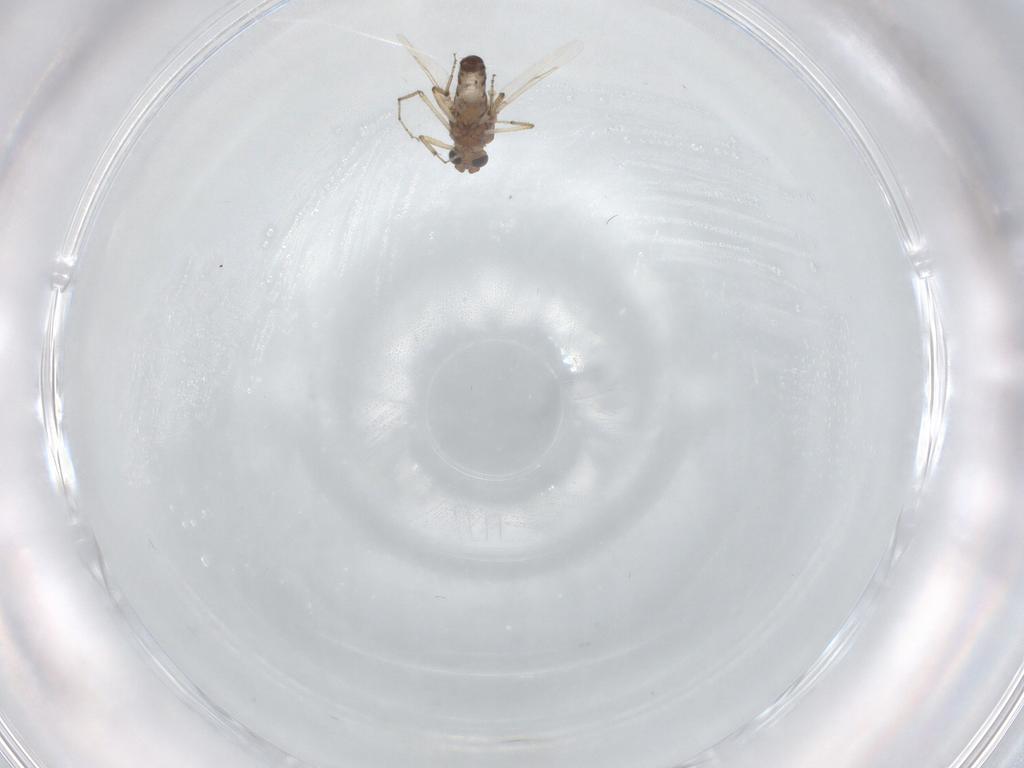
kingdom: Animalia
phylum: Arthropoda
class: Insecta
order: Diptera
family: Ceratopogonidae
